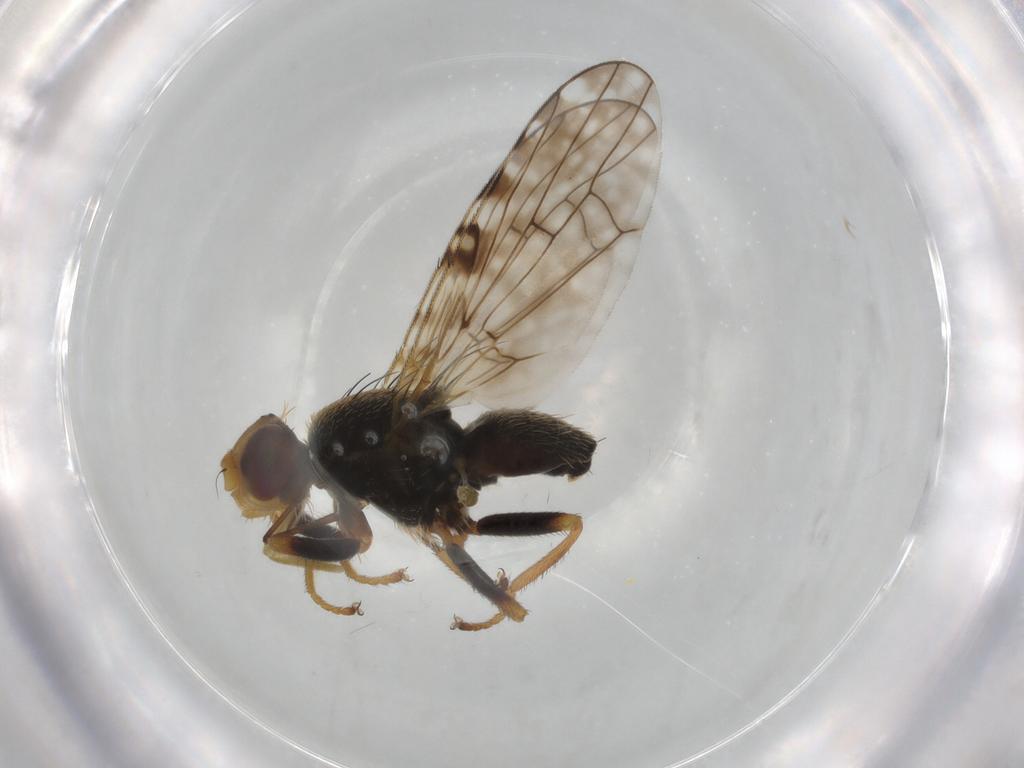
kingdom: Animalia
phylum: Arthropoda
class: Insecta
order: Diptera
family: Tephritidae
